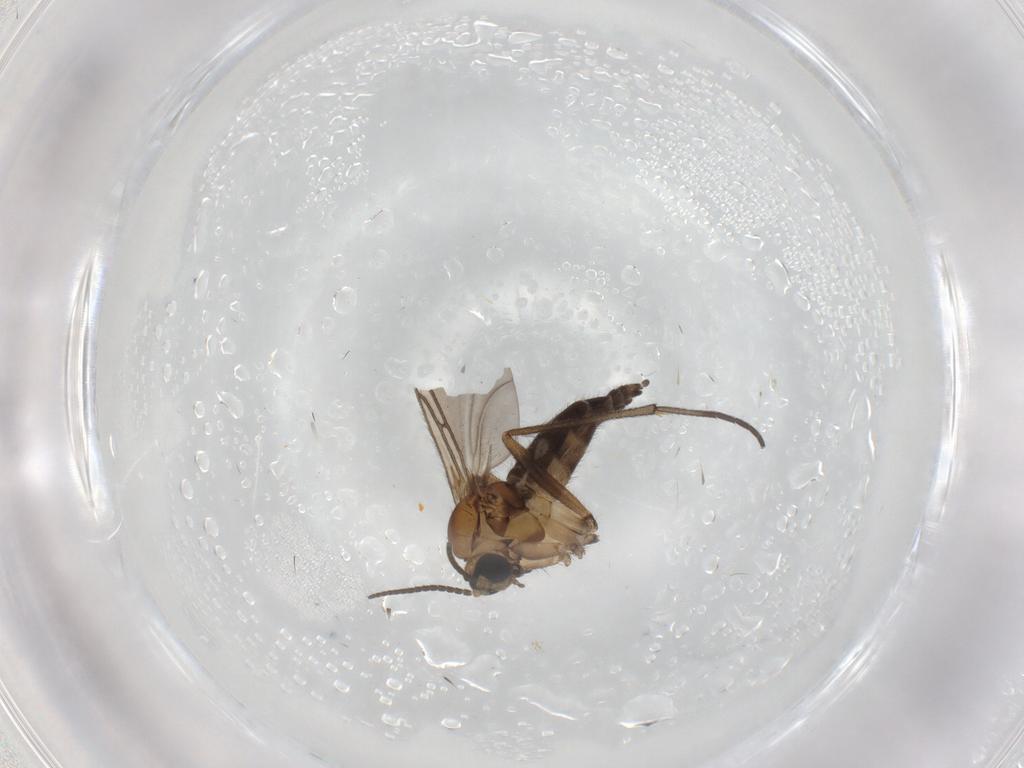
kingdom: Animalia
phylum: Arthropoda
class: Insecta
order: Diptera
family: Sciaridae
